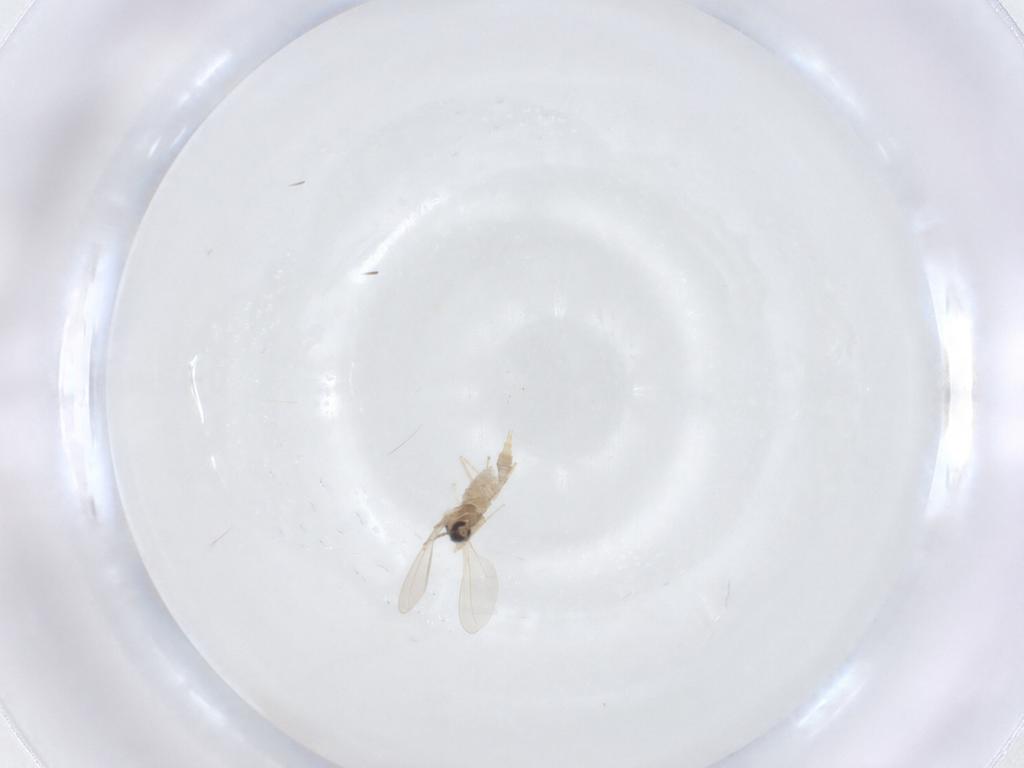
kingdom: Animalia
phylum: Arthropoda
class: Insecta
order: Diptera
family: Cecidomyiidae
